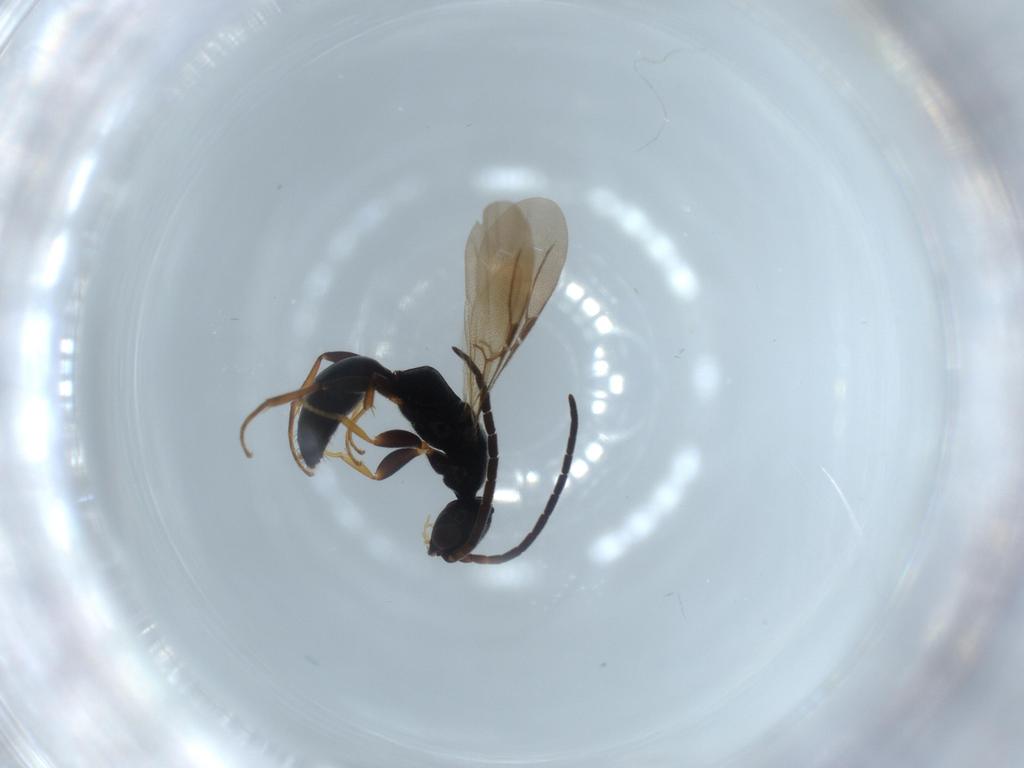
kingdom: Animalia
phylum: Arthropoda
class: Insecta
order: Hymenoptera
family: Bethylidae
